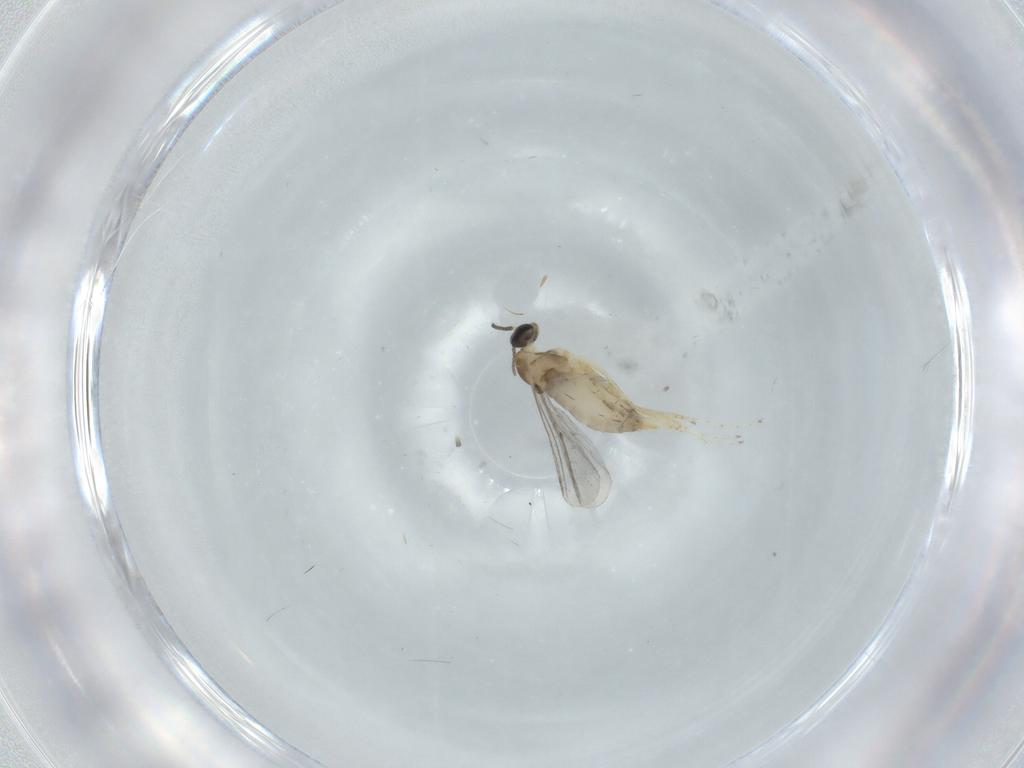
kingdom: Animalia
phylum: Arthropoda
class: Insecta
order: Diptera
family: Cecidomyiidae
